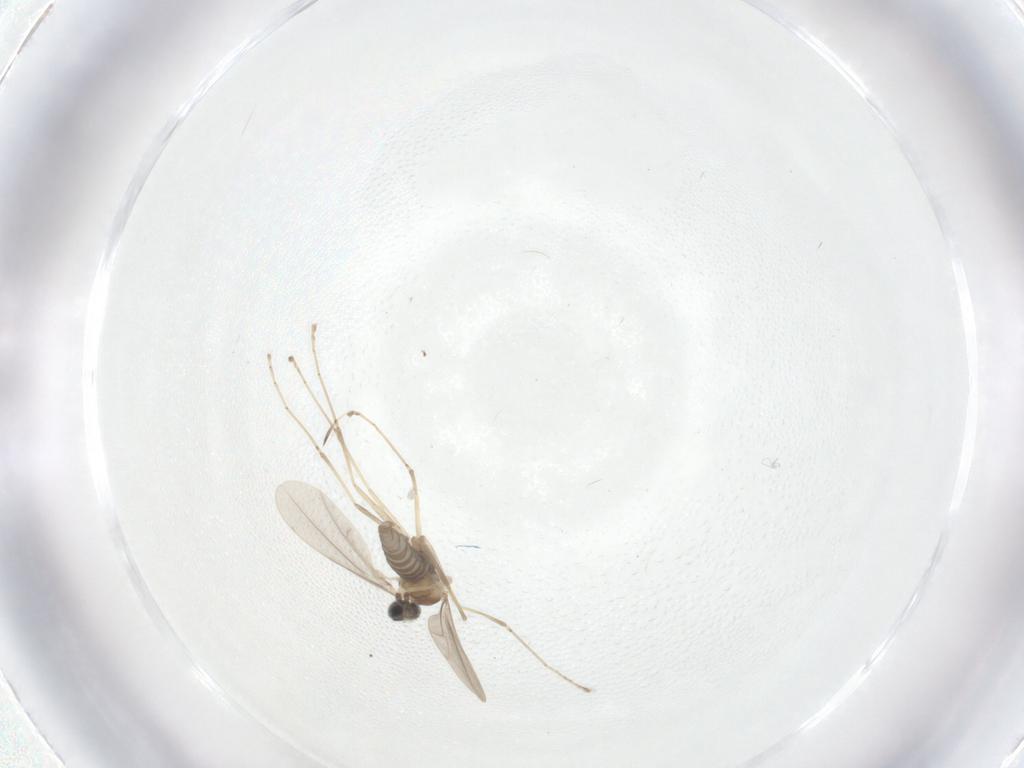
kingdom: Animalia
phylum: Arthropoda
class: Insecta
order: Diptera
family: Cecidomyiidae
